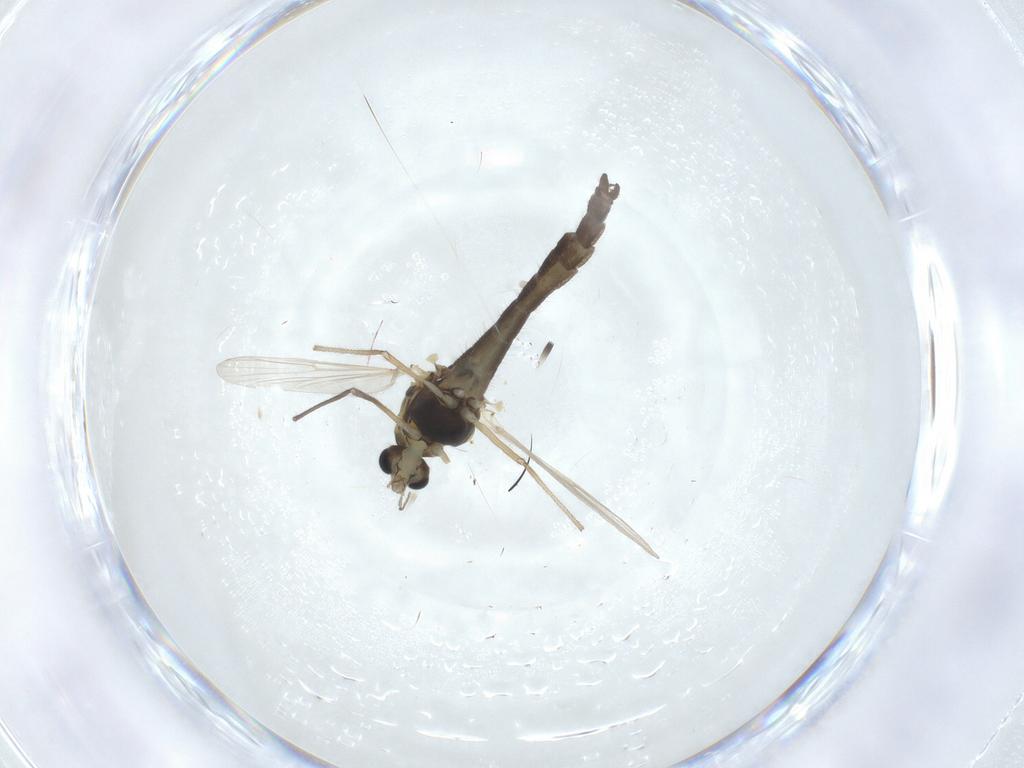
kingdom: Animalia
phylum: Arthropoda
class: Insecta
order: Diptera
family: Chironomidae
